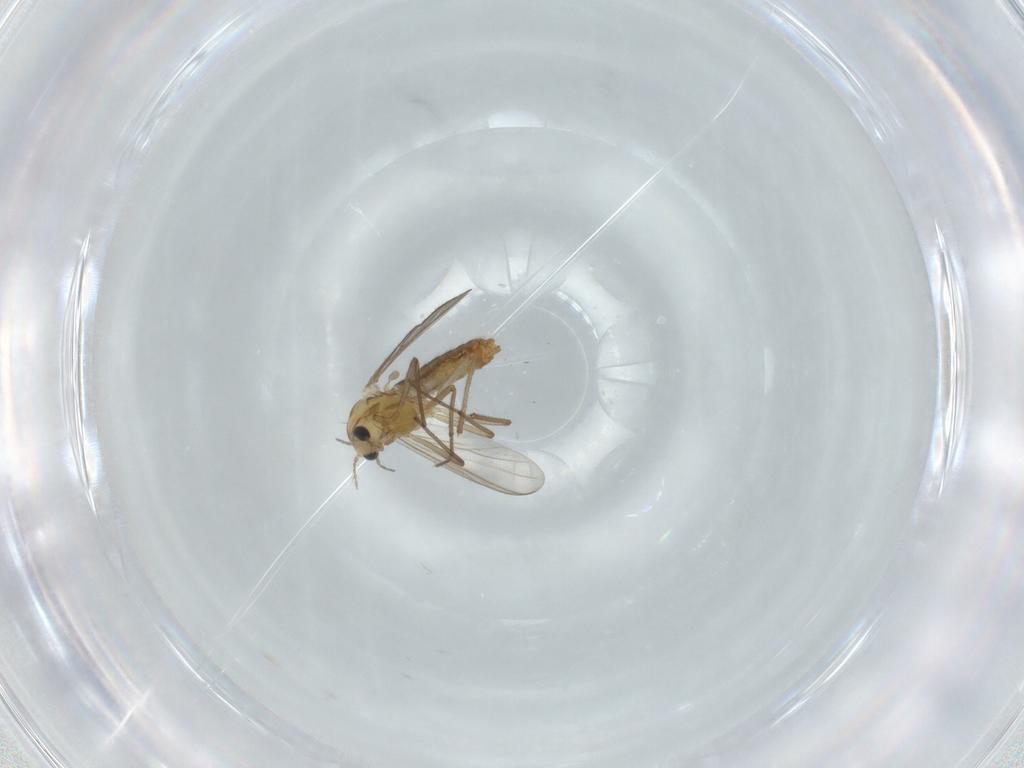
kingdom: Animalia
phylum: Arthropoda
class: Insecta
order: Diptera
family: Chironomidae
